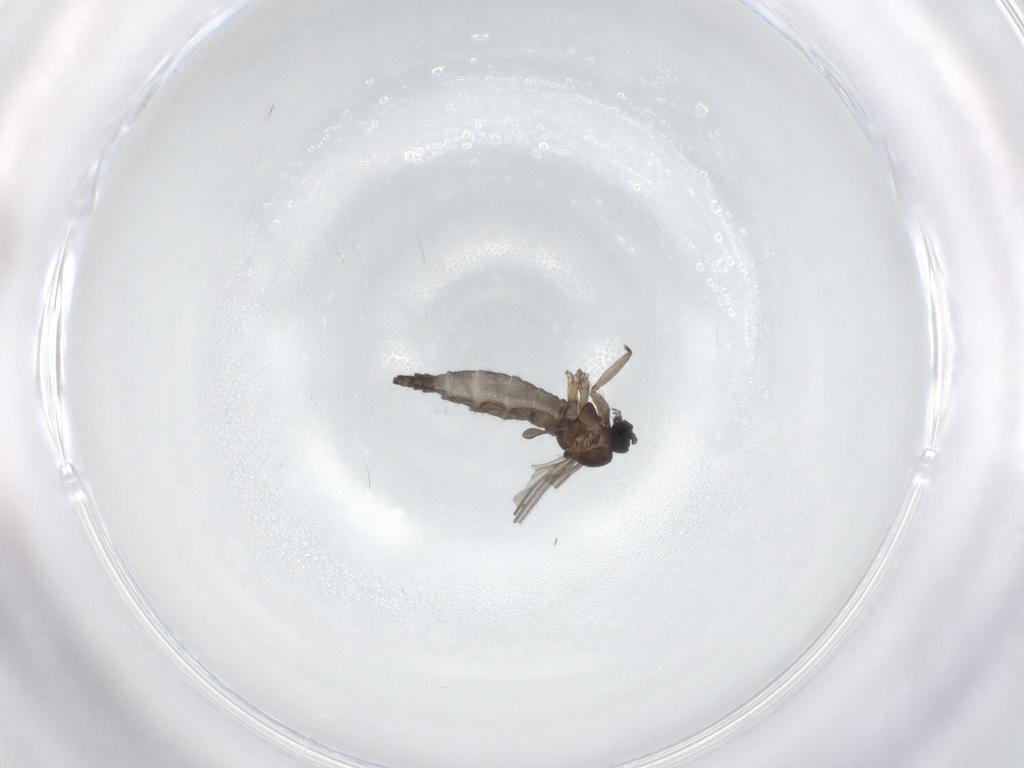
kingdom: Animalia
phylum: Arthropoda
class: Insecta
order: Diptera
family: Sciaridae
